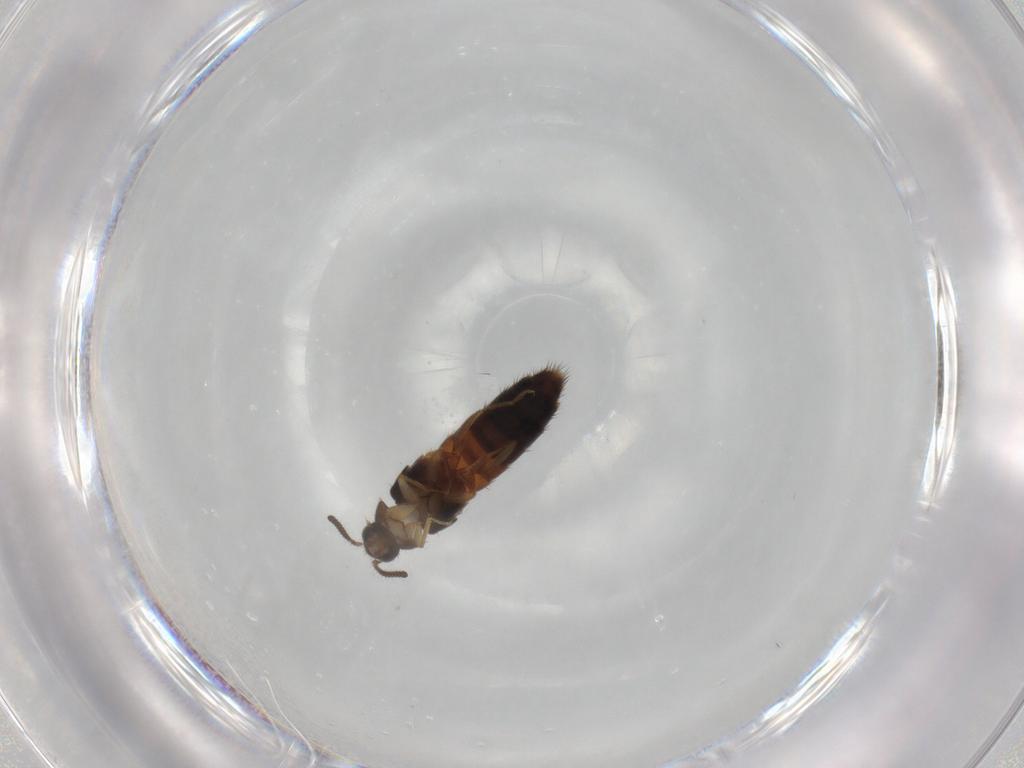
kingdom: Animalia
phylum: Arthropoda
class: Insecta
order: Coleoptera
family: Staphylinidae
